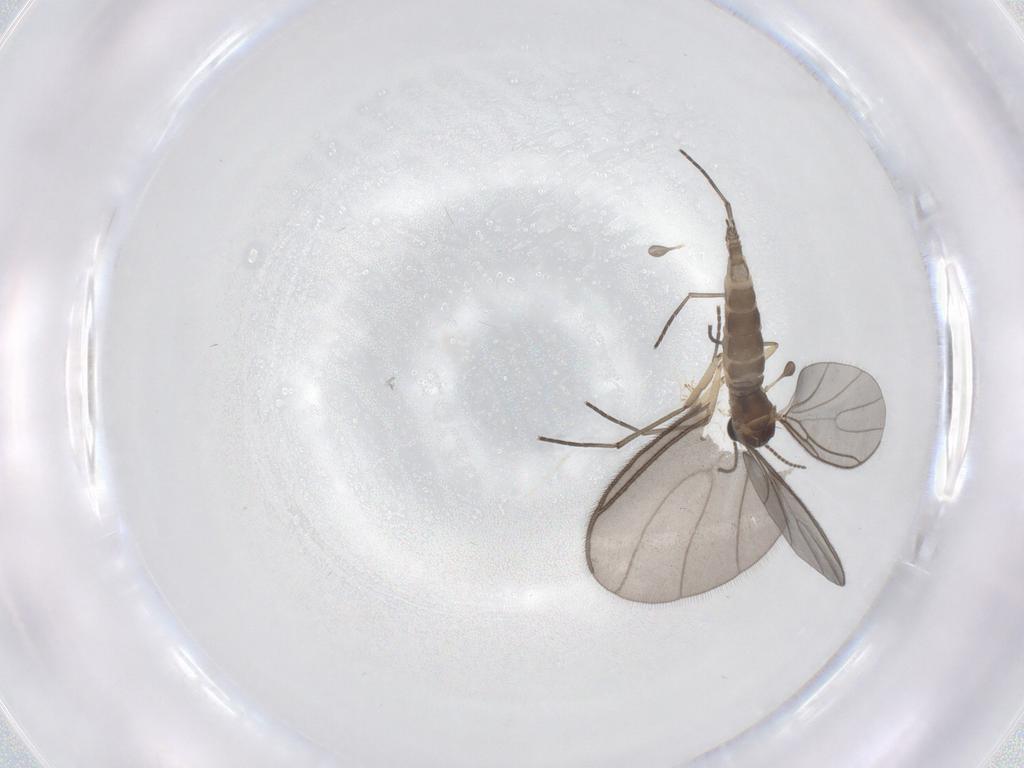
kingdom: Animalia
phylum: Arthropoda
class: Insecta
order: Diptera
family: Sciaridae
